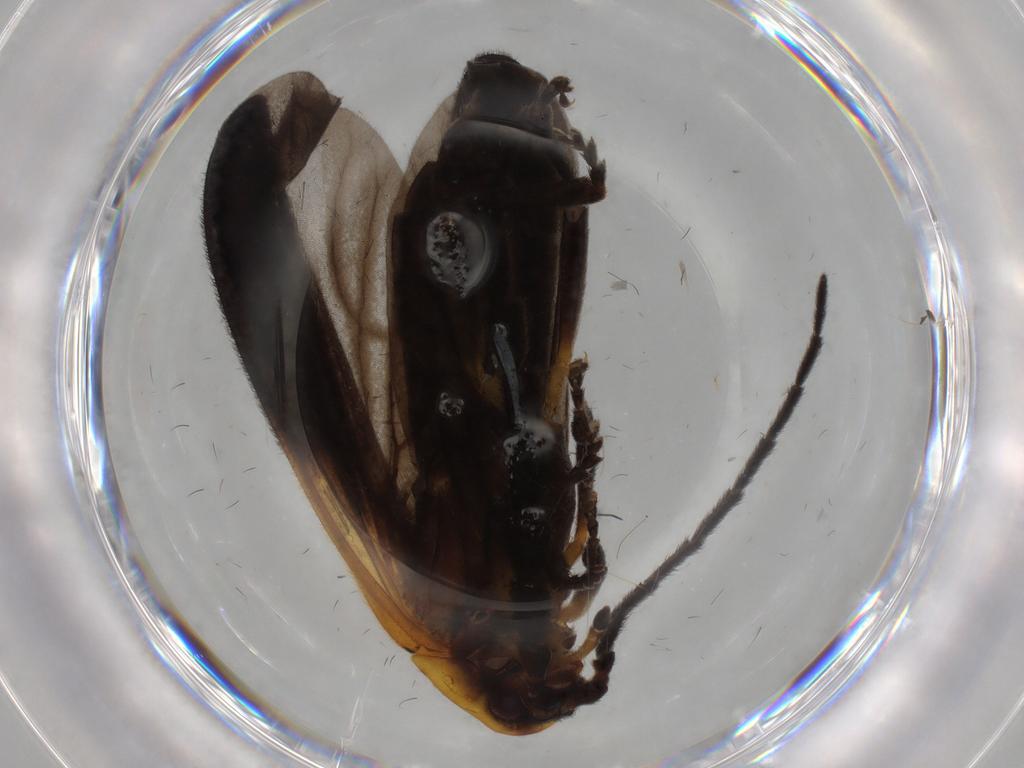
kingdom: Animalia
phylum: Arthropoda
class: Insecta
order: Coleoptera
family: Lycidae
